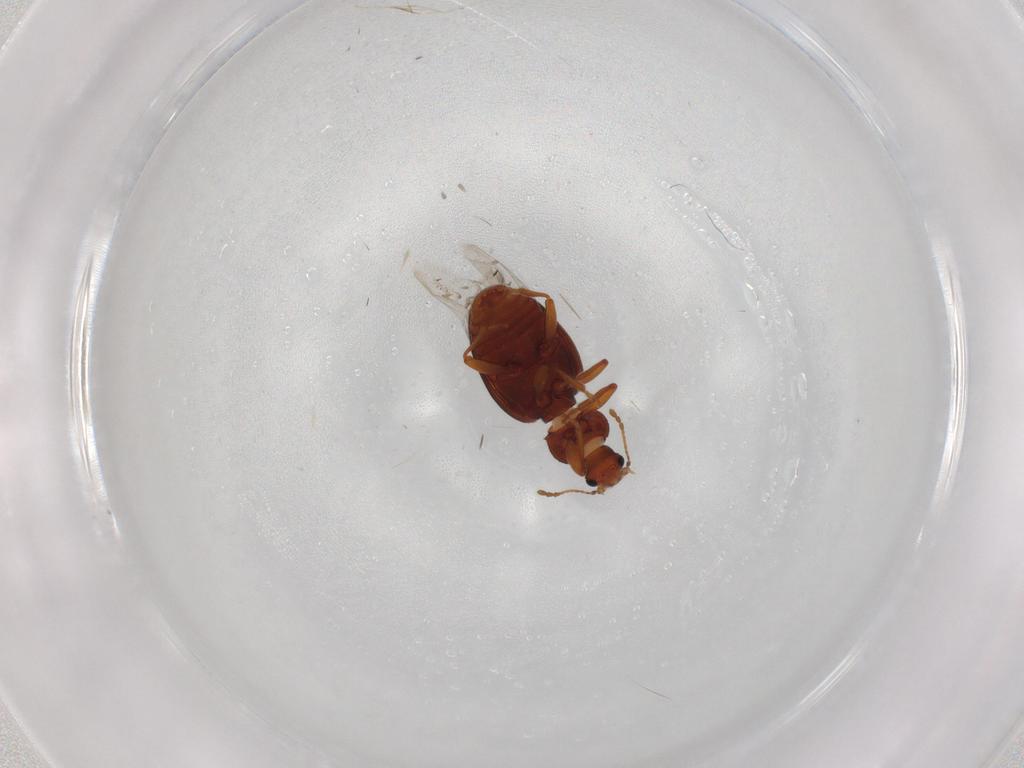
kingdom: Animalia
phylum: Arthropoda
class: Insecta
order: Coleoptera
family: Latridiidae
